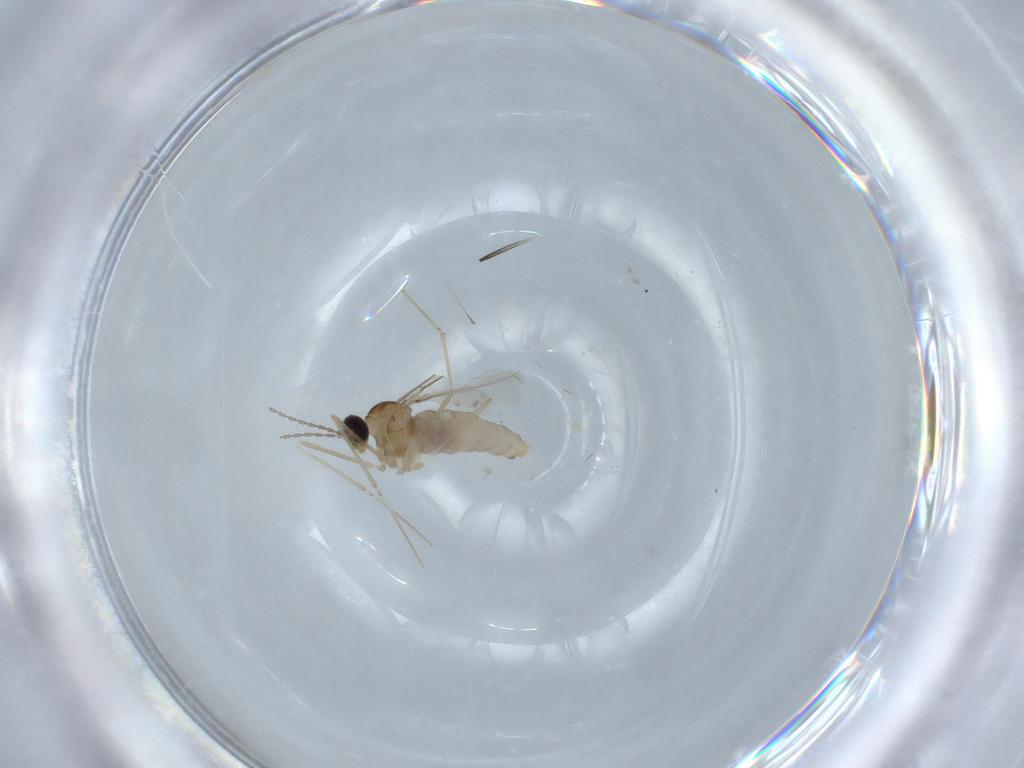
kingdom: Animalia
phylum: Arthropoda
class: Insecta
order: Diptera
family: Cecidomyiidae
